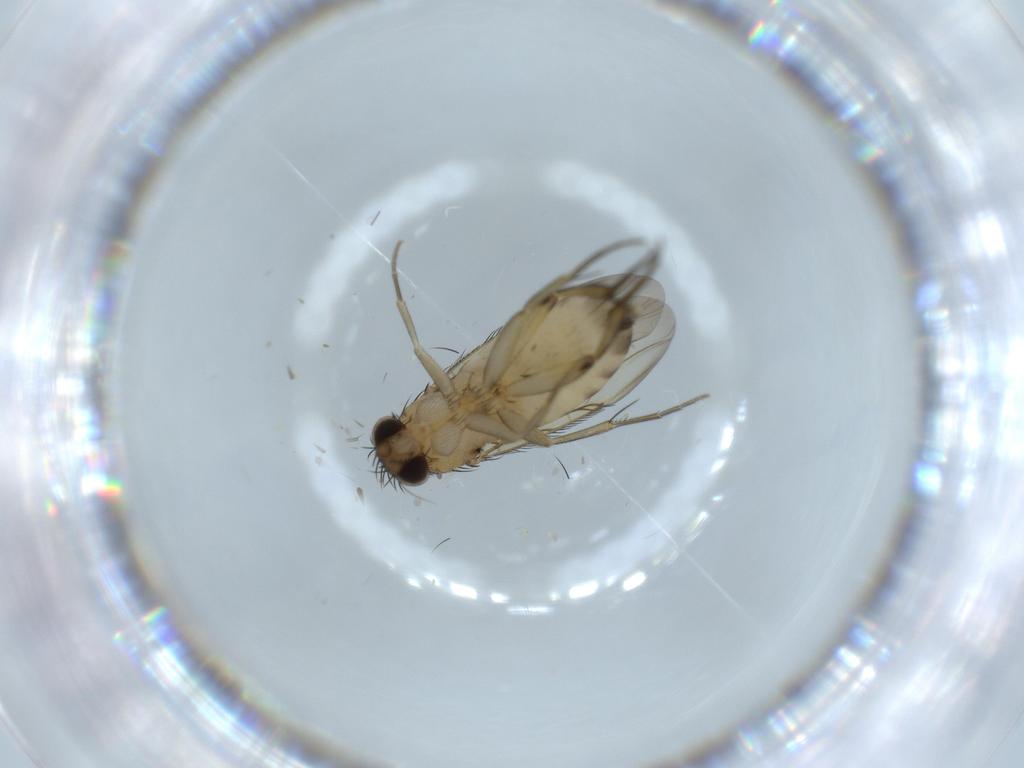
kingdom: Animalia
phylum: Arthropoda
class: Insecta
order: Diptera
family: Phoridae
